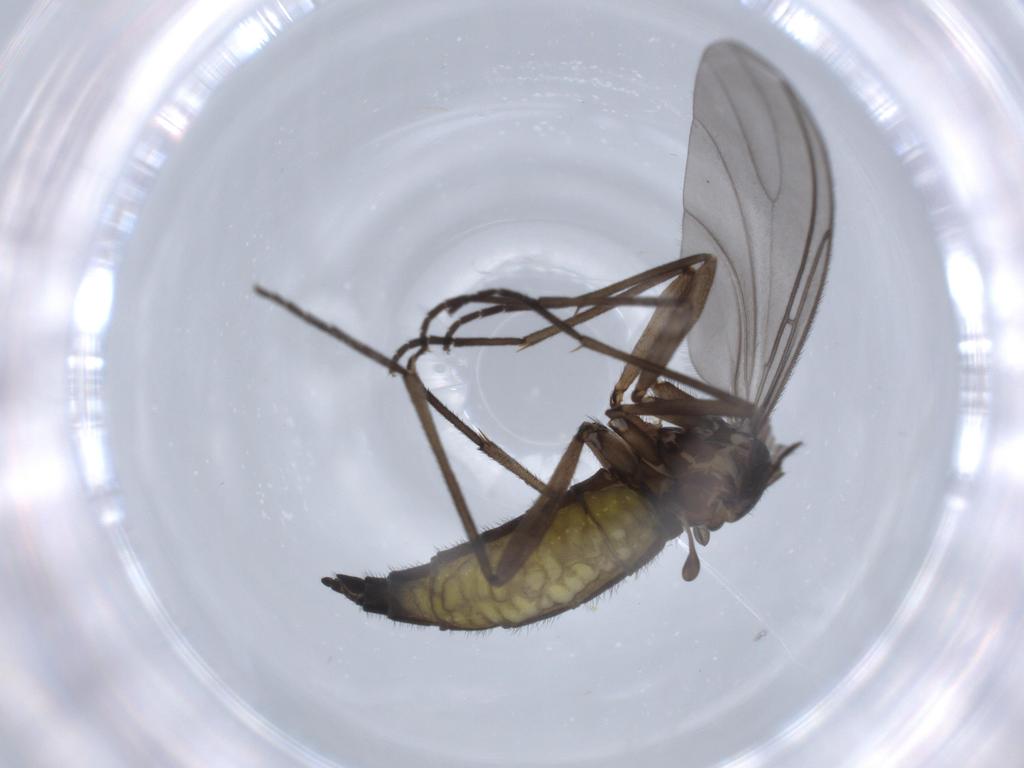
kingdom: Animalia
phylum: Arthropoda
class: Insecta
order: Diptera
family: Sciaridae
